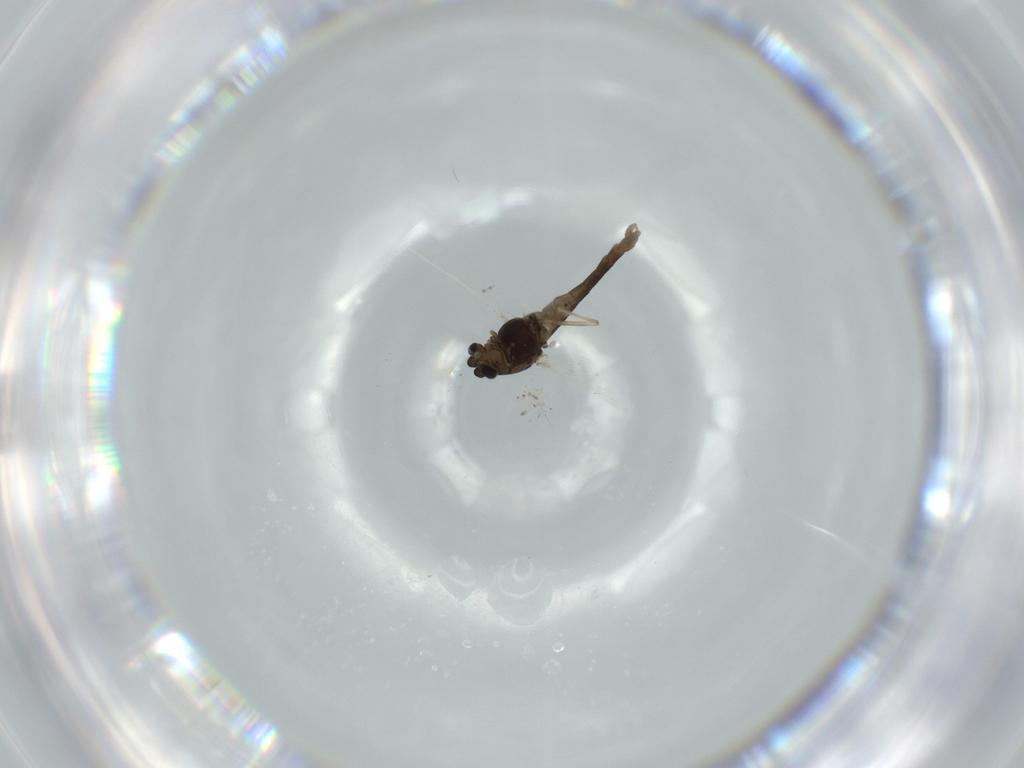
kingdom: Animalia
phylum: Arthropoda
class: Insecta
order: Diptera
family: Chironomidae
